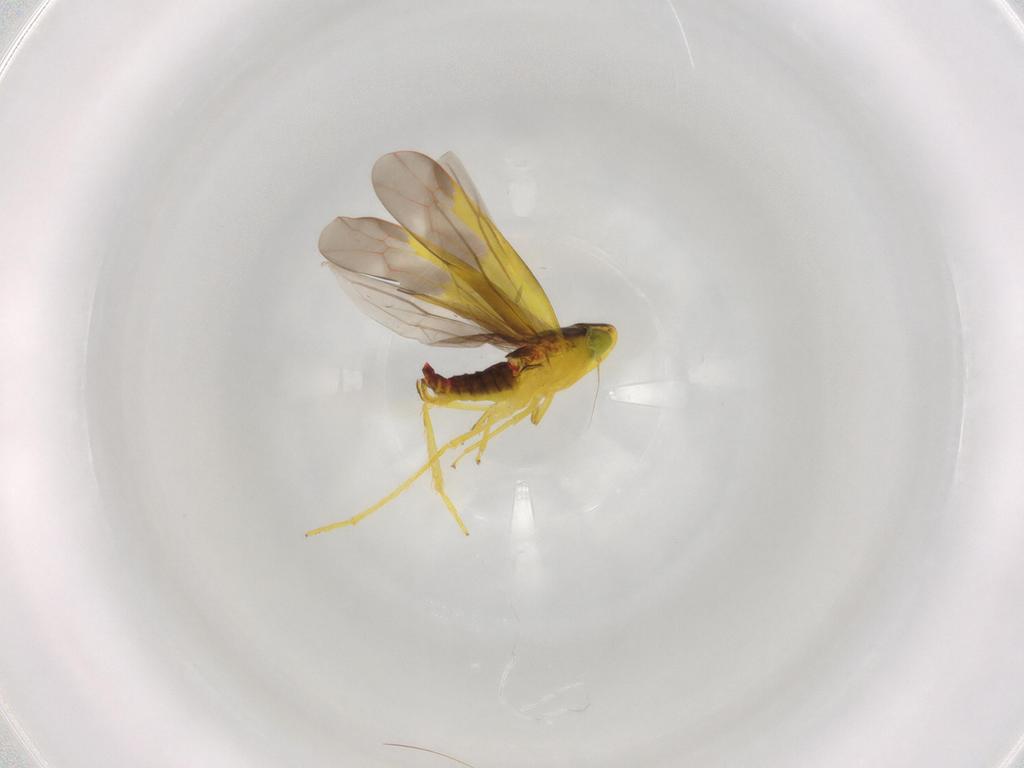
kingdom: Animalia
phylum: Arthropoda
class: Insecta
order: Hemiptera
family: Cicadellidae
